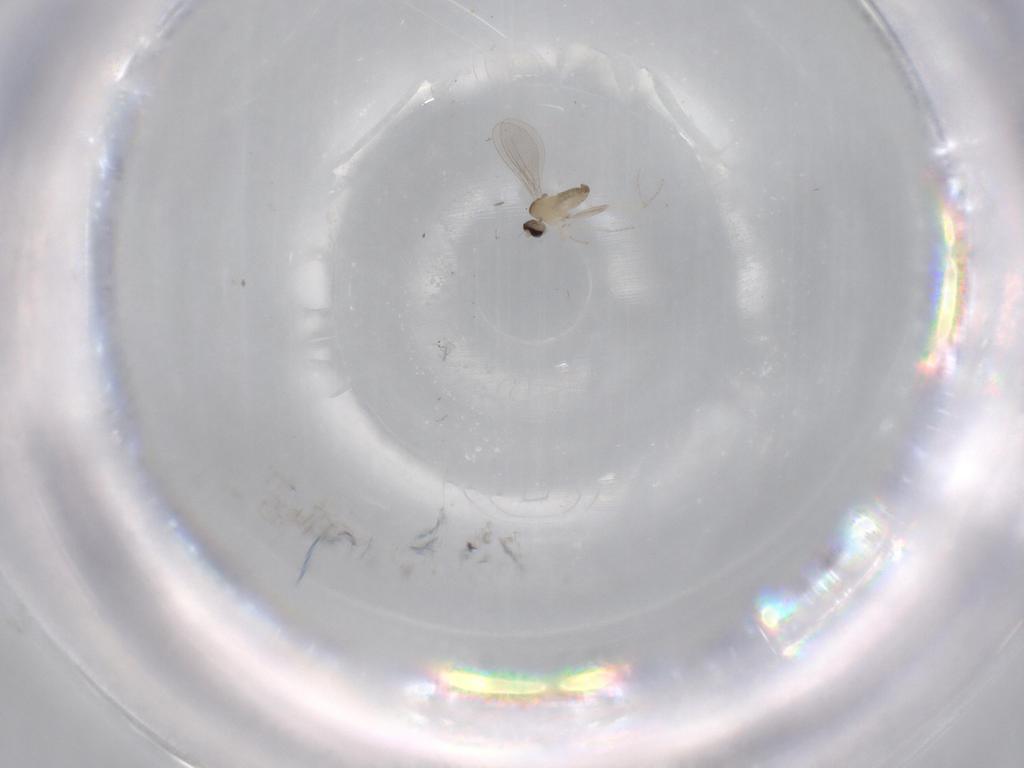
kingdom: Animalia
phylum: Arthropoda
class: Insecta
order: Diptera
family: Cecidomyiidae
